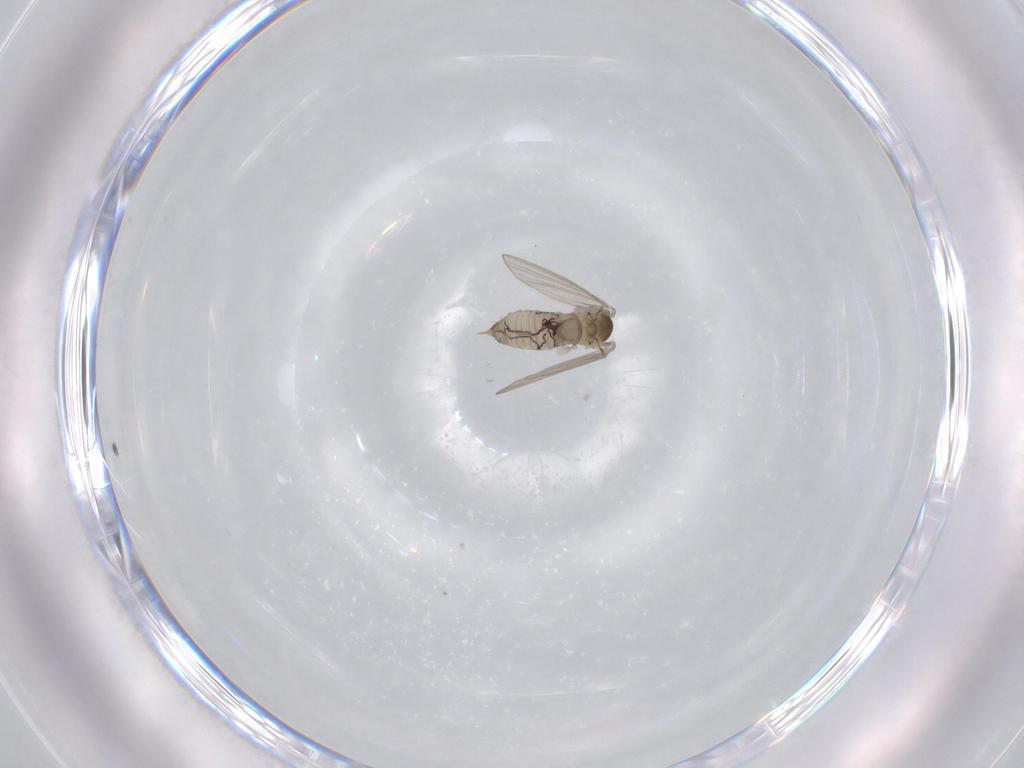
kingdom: Animalia
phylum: Arthropoda
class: Insecta
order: Diptera
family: Psychodidae
